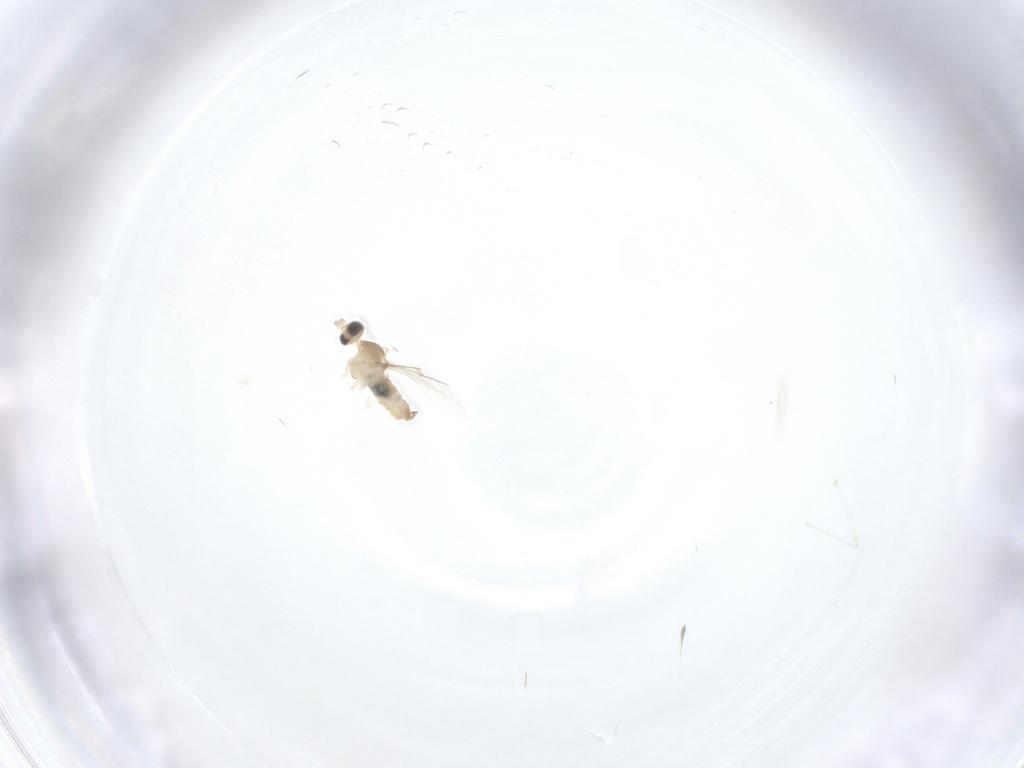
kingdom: Animalia
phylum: Arthropoda
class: Insecta
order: Diptera
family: Cecidomyiidae
